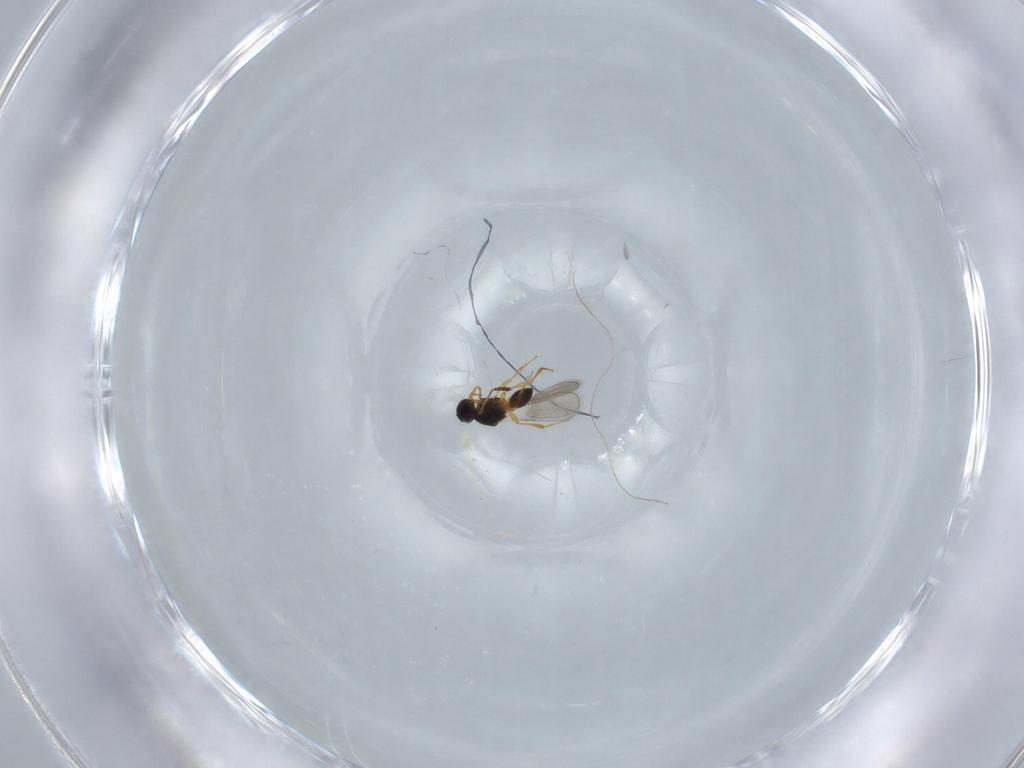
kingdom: Animalia
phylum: Arthropoda
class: Insecta
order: Hymenoptera
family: Platygastridae
